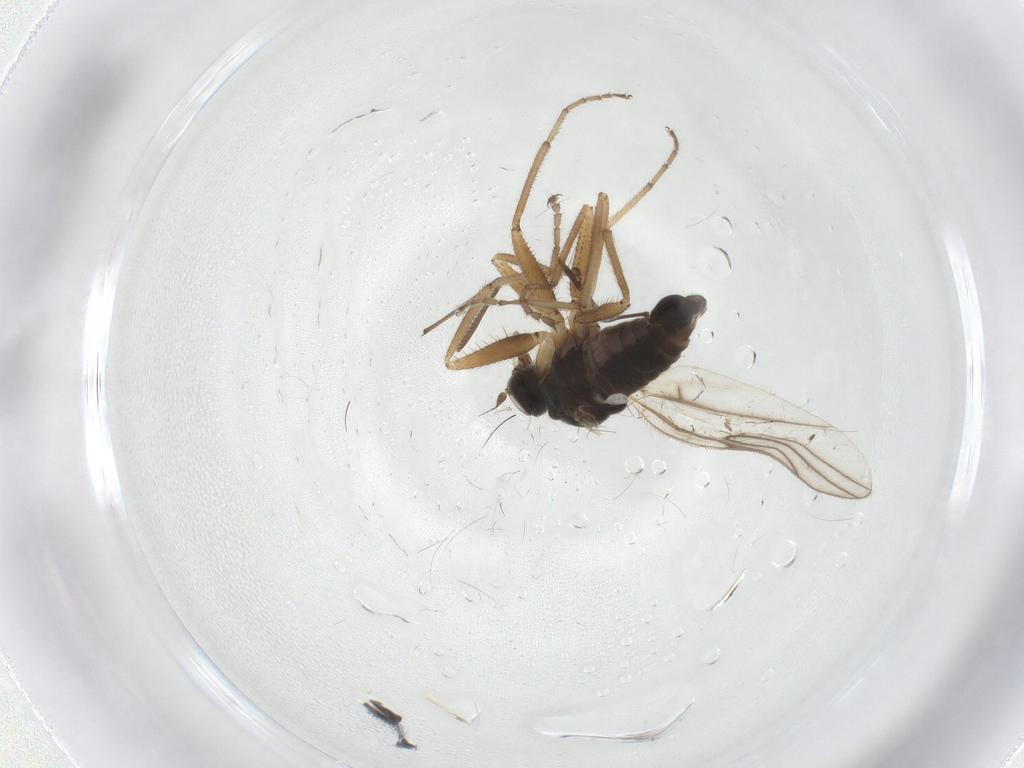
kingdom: Animalia
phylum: Arthropoda
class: Insecta
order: Diptera
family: Hybotidae
